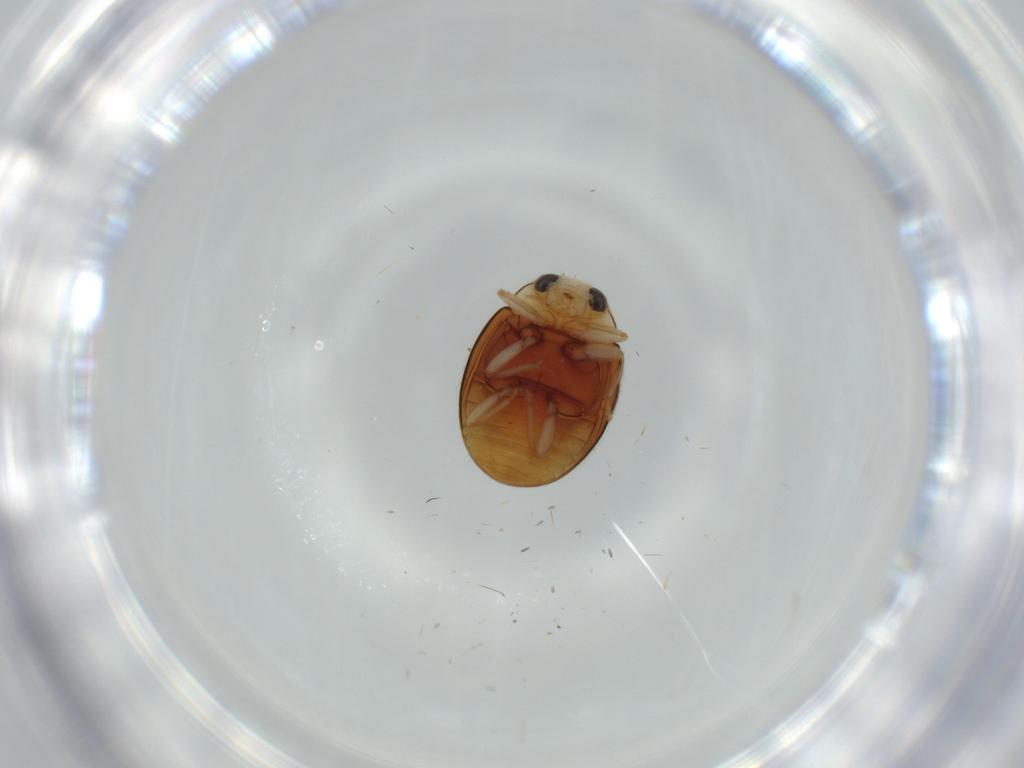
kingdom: Animalia
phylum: Arthropoda
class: Insecta
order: Coleoptera
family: Coccinellidae
